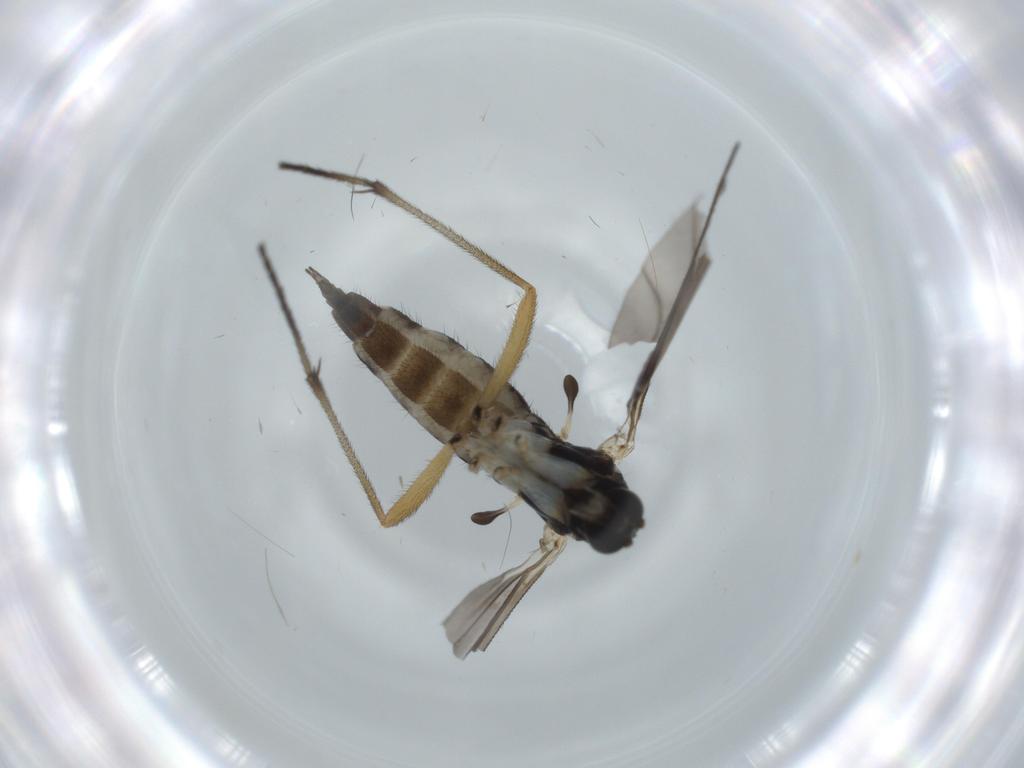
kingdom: Animalia
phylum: Arthropoda
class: Insecta
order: Diptera
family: Sciaridae
